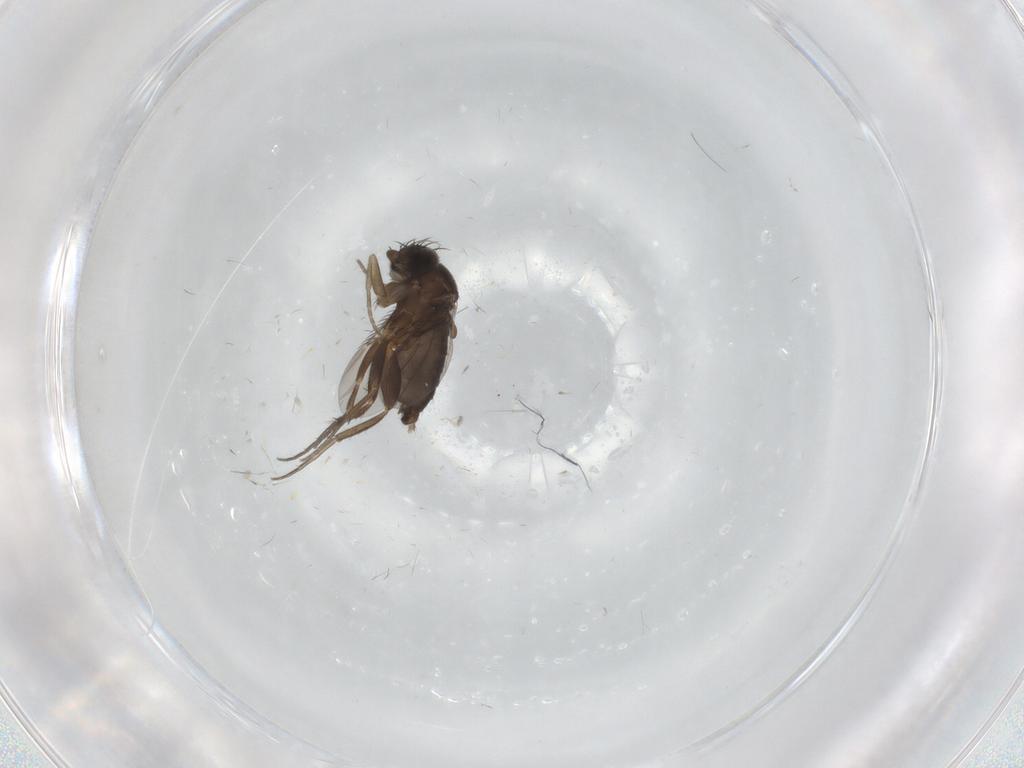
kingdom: Animalia
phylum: Arthropoda
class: Insecta
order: Diptera
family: Phoridae
